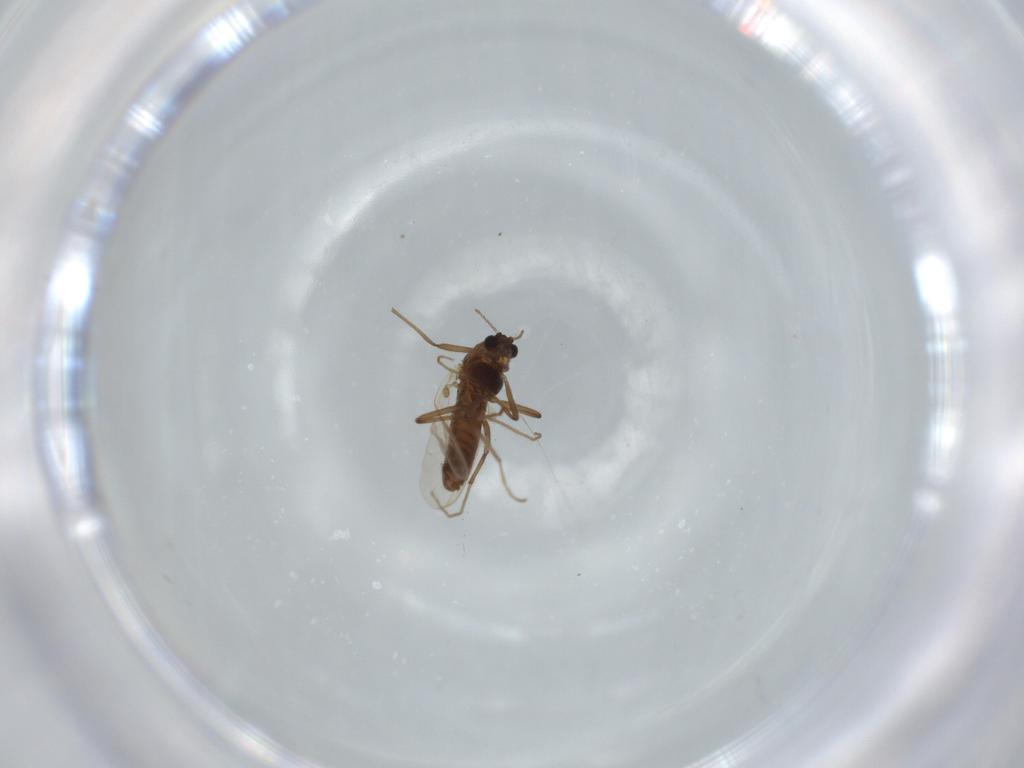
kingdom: Animalia
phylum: Arthropoda
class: Insecta
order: Diptera
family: Chironomidae
